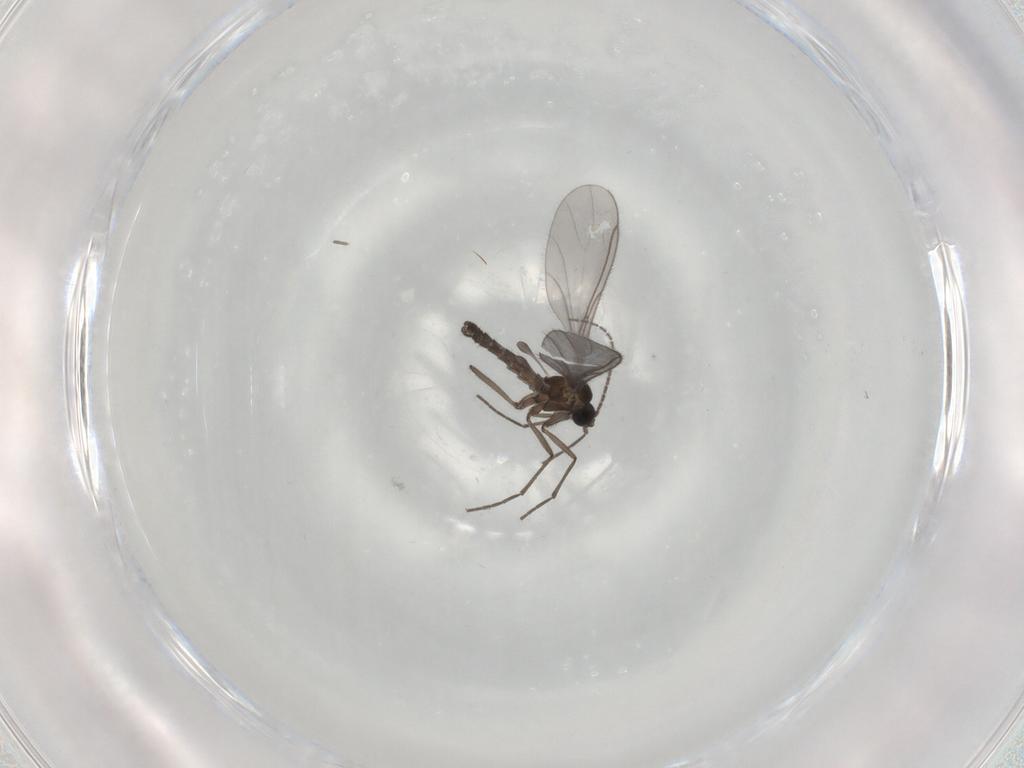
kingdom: Animalia
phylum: Arthropoda
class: Insecta
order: Diptera
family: Sciaridae
